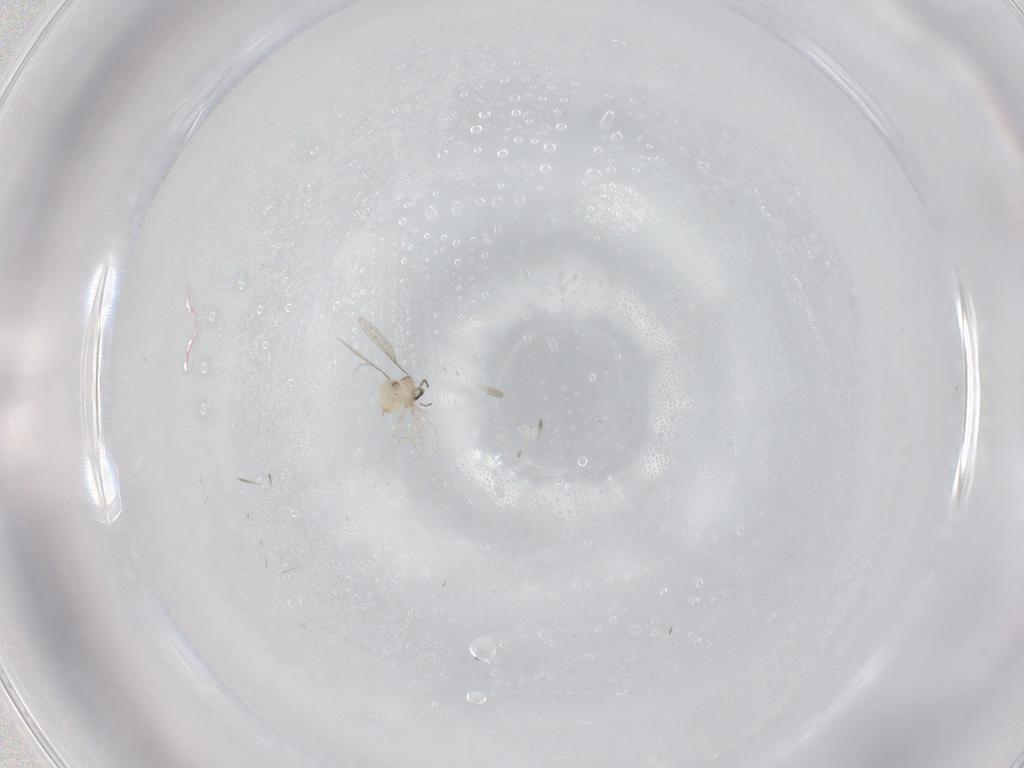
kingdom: Animalia
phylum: Arthropoda
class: Insecta
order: Diptera
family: Cecidomyiidae
